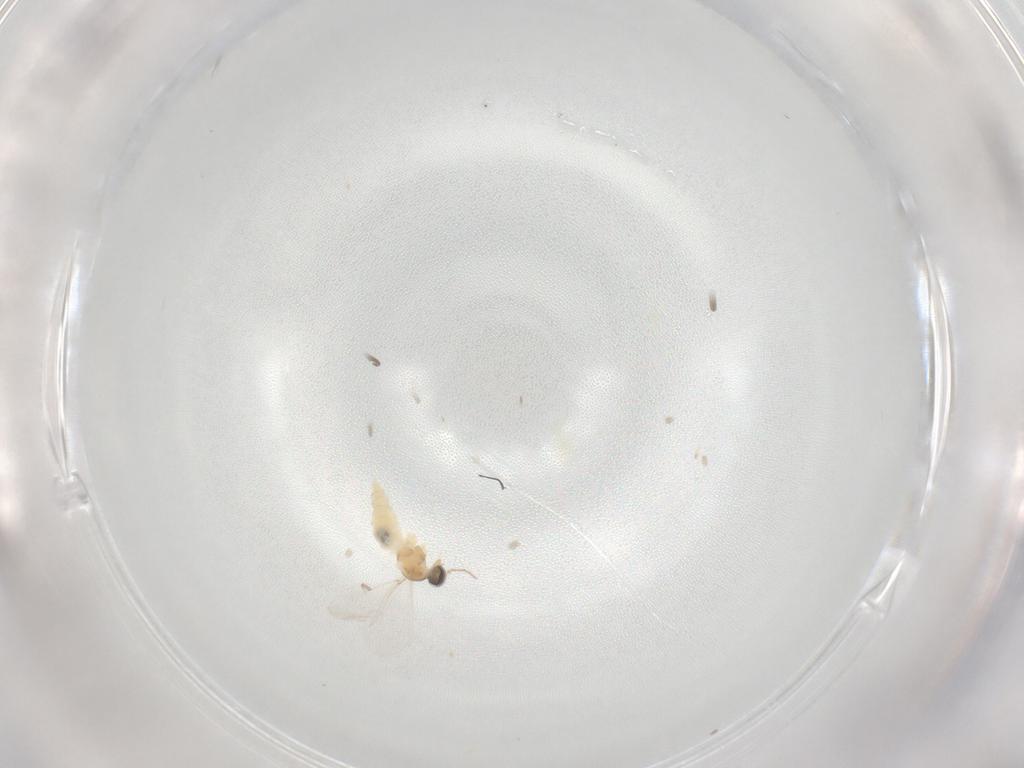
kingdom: Animalia
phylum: Arthropoda
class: Insecta
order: Diptera
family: Cecidomyiidae
